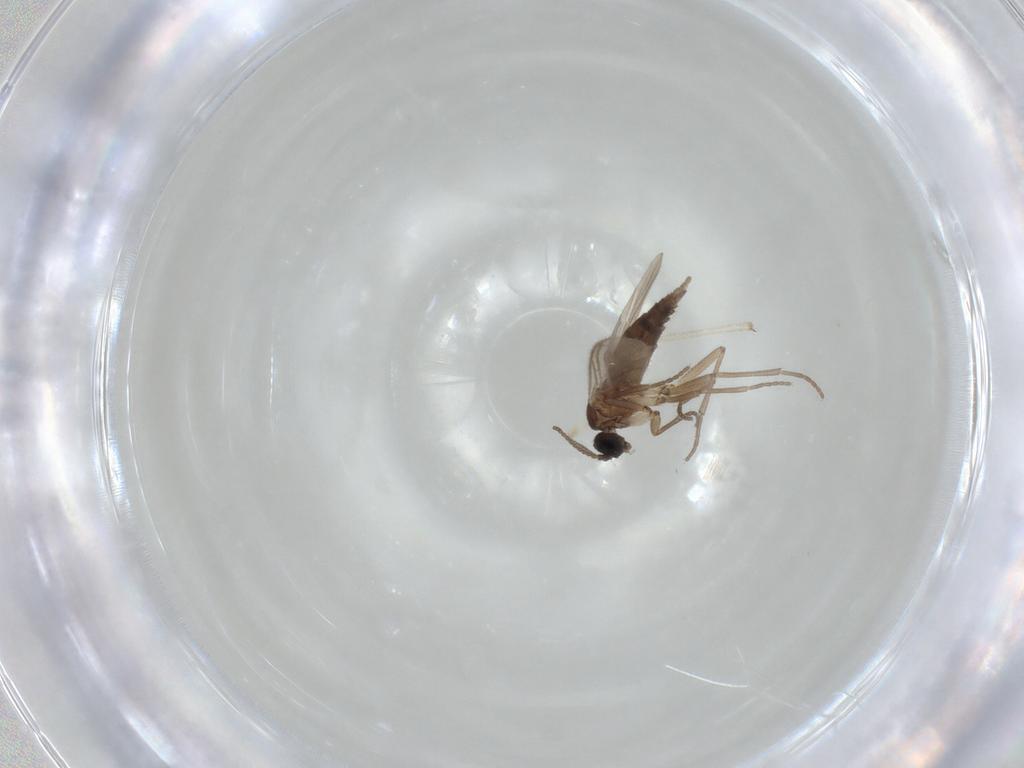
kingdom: Animalia
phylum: Arthropoda
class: Insecta
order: Diptera
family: Sciaridae
